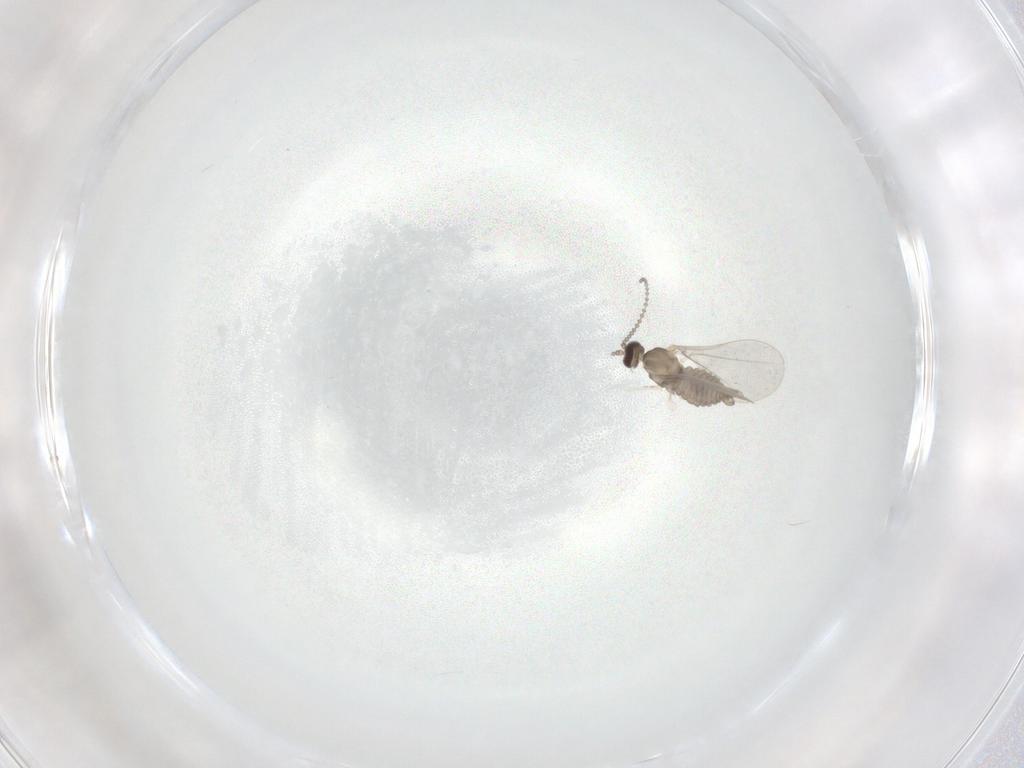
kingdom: Animalia
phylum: Arthropoda
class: Insecta
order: Diptera
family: Cecidomyiidae
